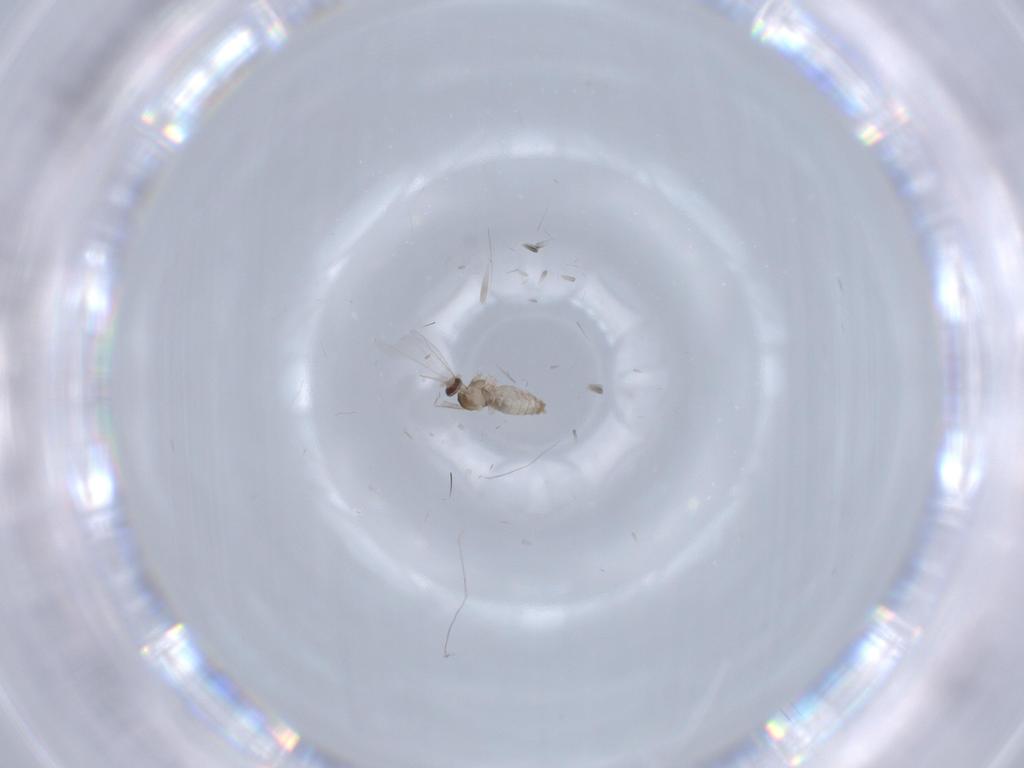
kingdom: Animalia
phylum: Arthropoda
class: Insecta
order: Diptera
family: Cecidomyiidae
